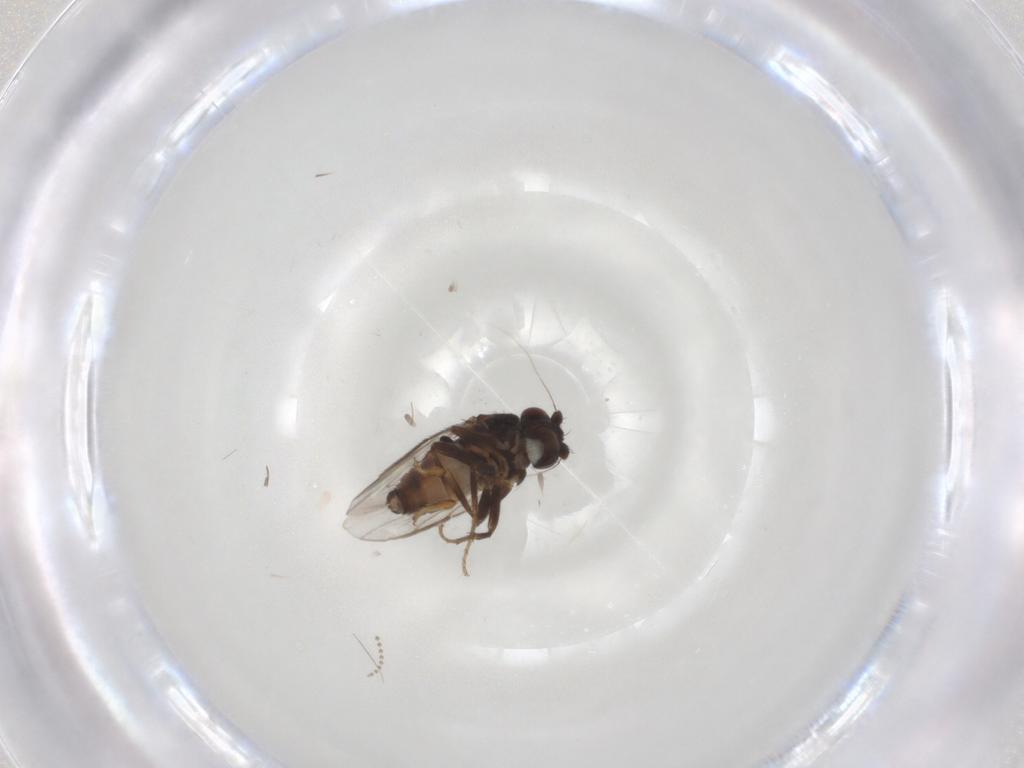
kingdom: Animalia
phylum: Arthropoda
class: Insecta
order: Diptera
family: Sphaeroceridae
